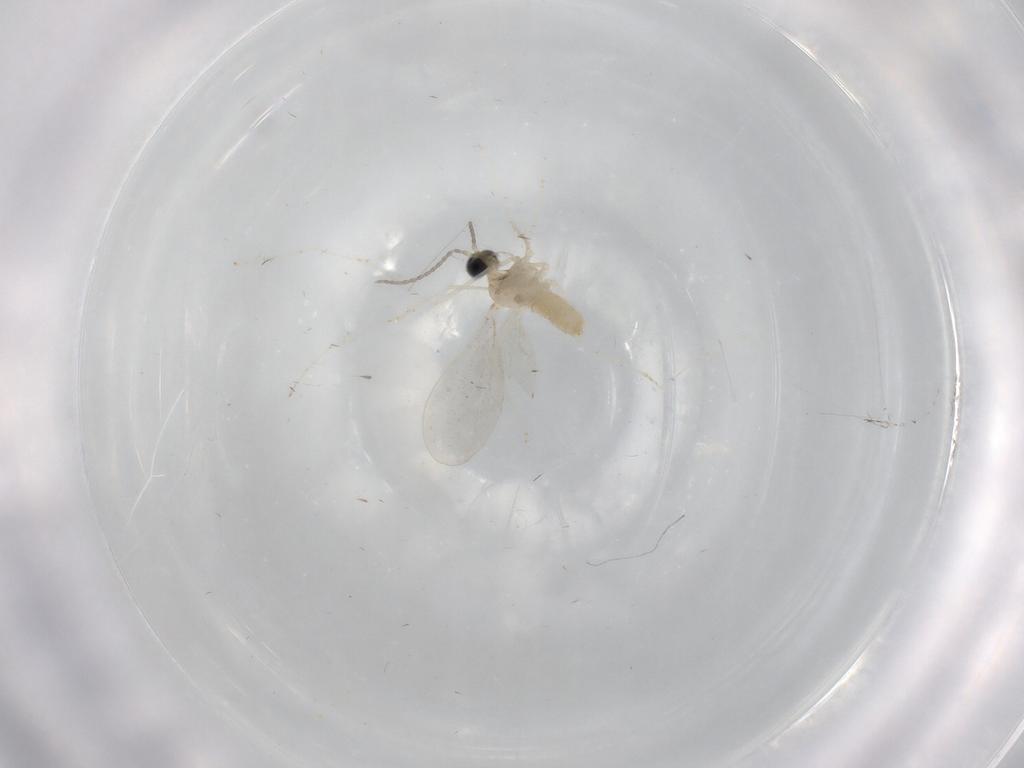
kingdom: Animalia
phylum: Arthropoda
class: Insecta
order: Diptera
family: Cecidomyiidae
